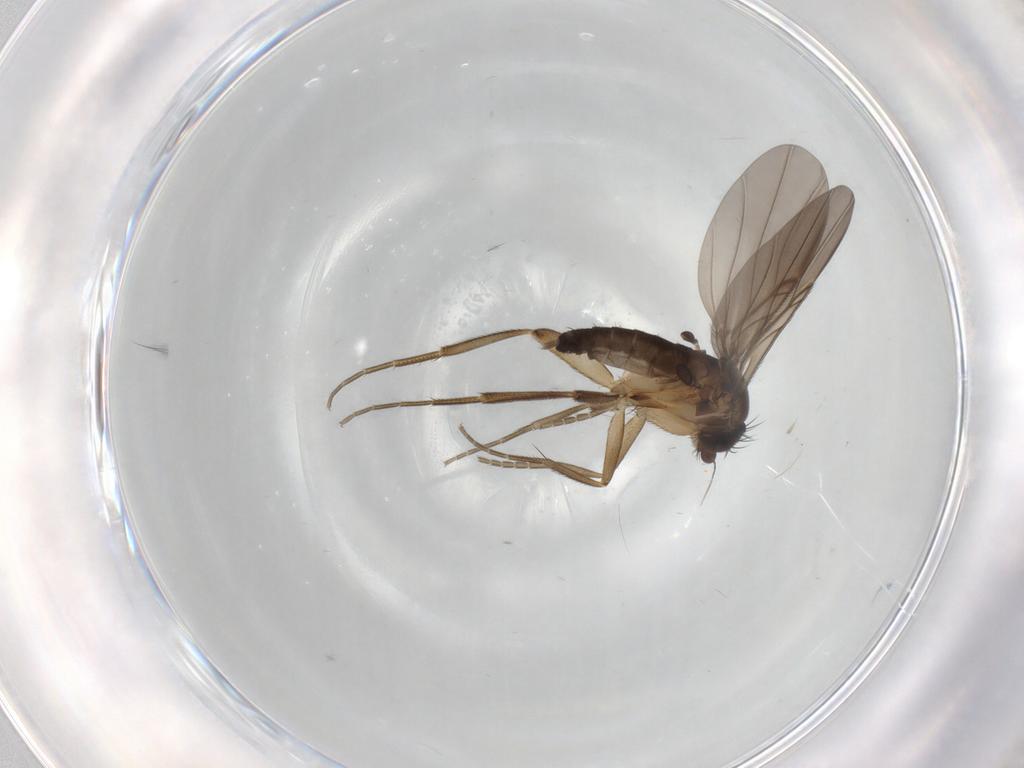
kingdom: Animalia
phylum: Arthropoda
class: Insecta
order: Diptera
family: Phoridae
